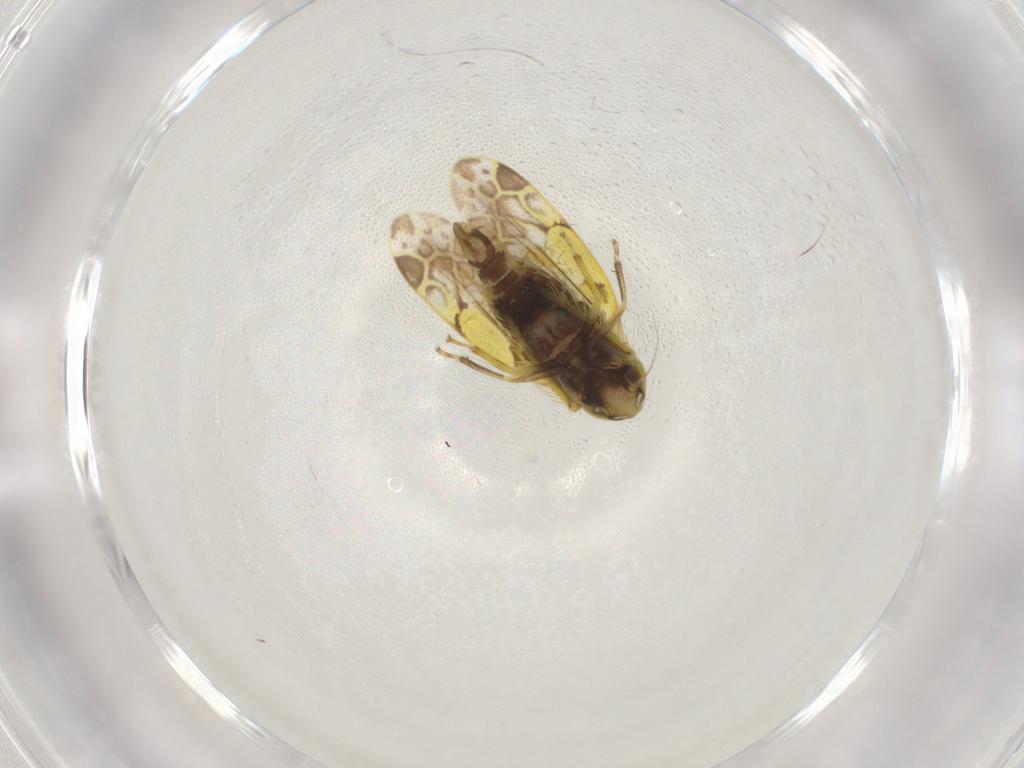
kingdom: Animalia
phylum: Arthropoda
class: Insecta
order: Hemiptera
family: Cicadellidae
